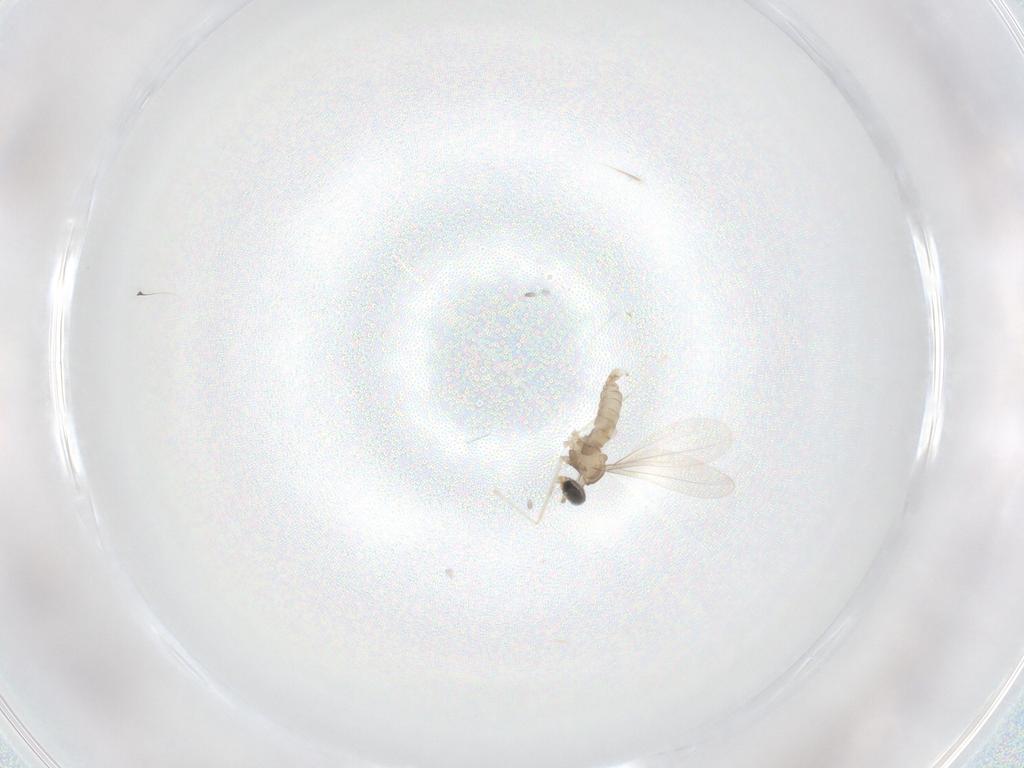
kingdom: Animalia
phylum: Arthropoda
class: Insecta
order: Diptera
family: Cecidomyiidae
